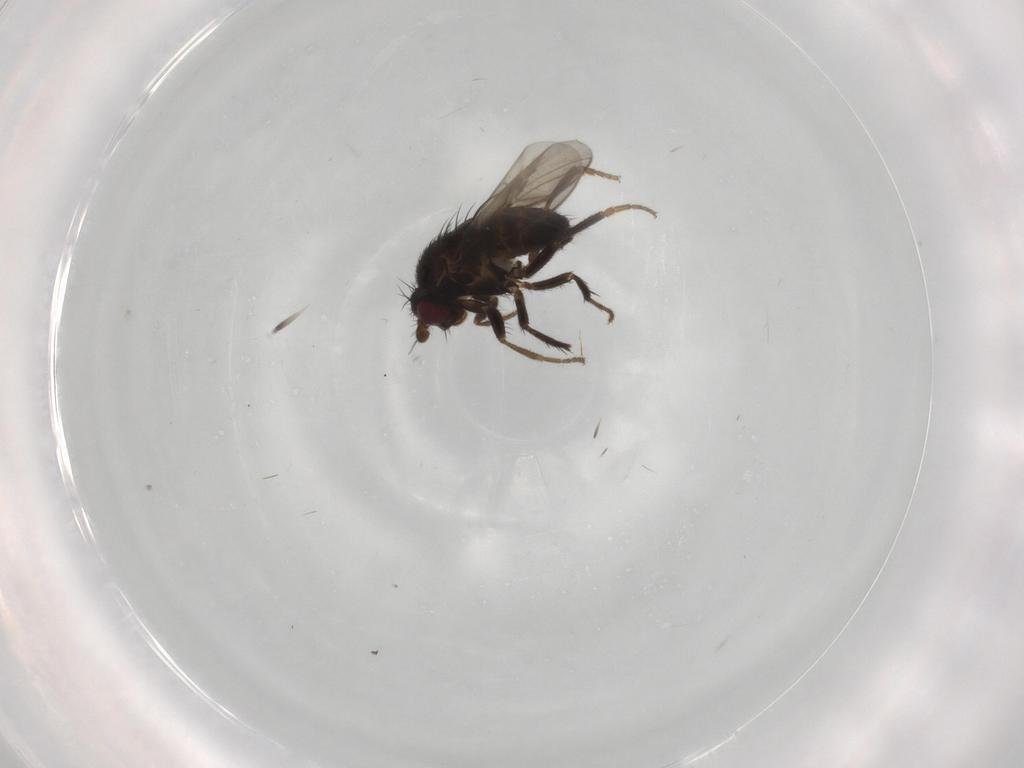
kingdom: Animalia
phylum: Arthropoda
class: Insecta
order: Diptera
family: Sphaeroceridae
